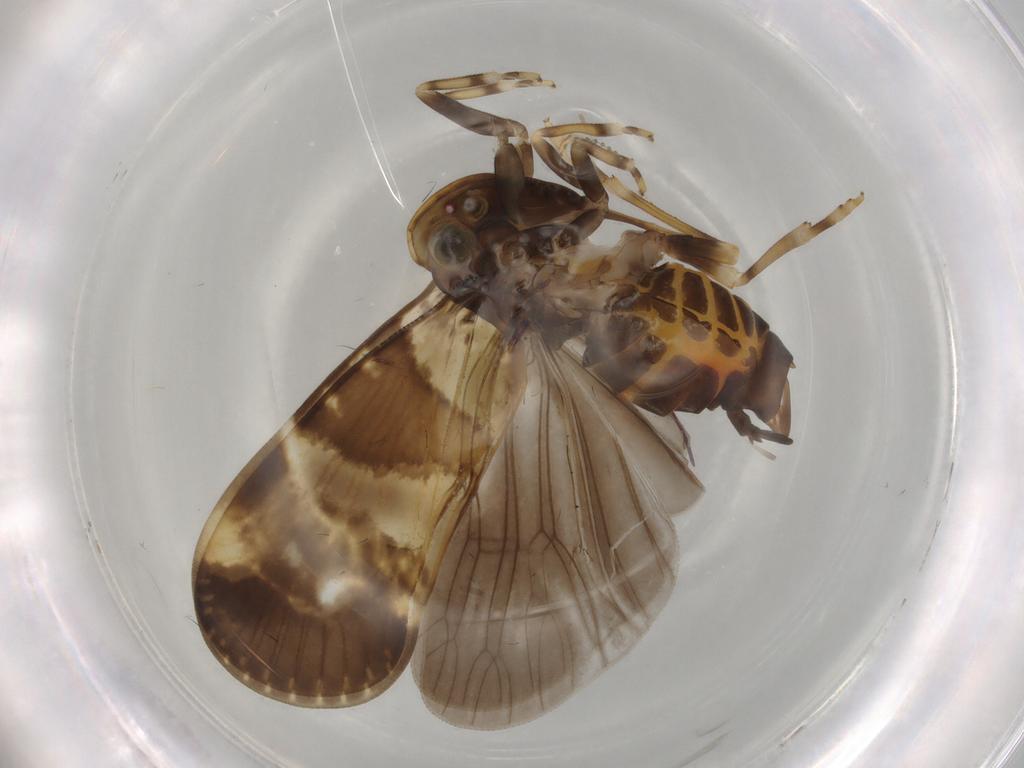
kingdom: Animalia
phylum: Arthropoda
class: Insecta
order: Hemiptera
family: Cixiidae
